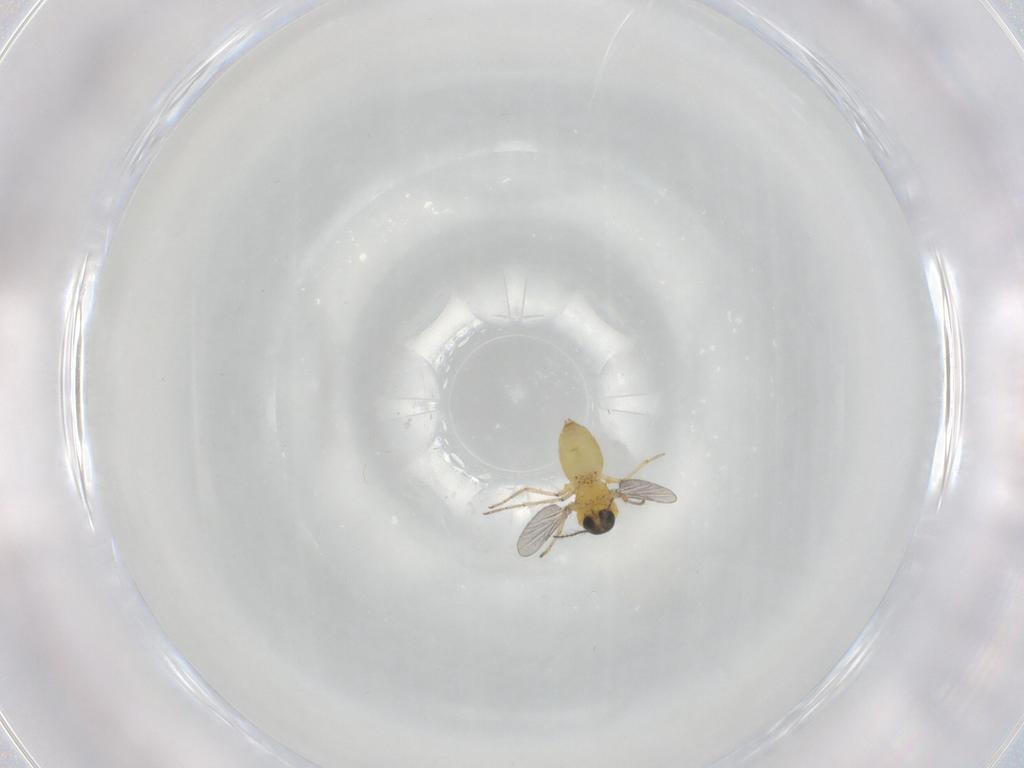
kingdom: Animalia
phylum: Arthropoda
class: Insecta
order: Diptera
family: Ceratopogonidae
